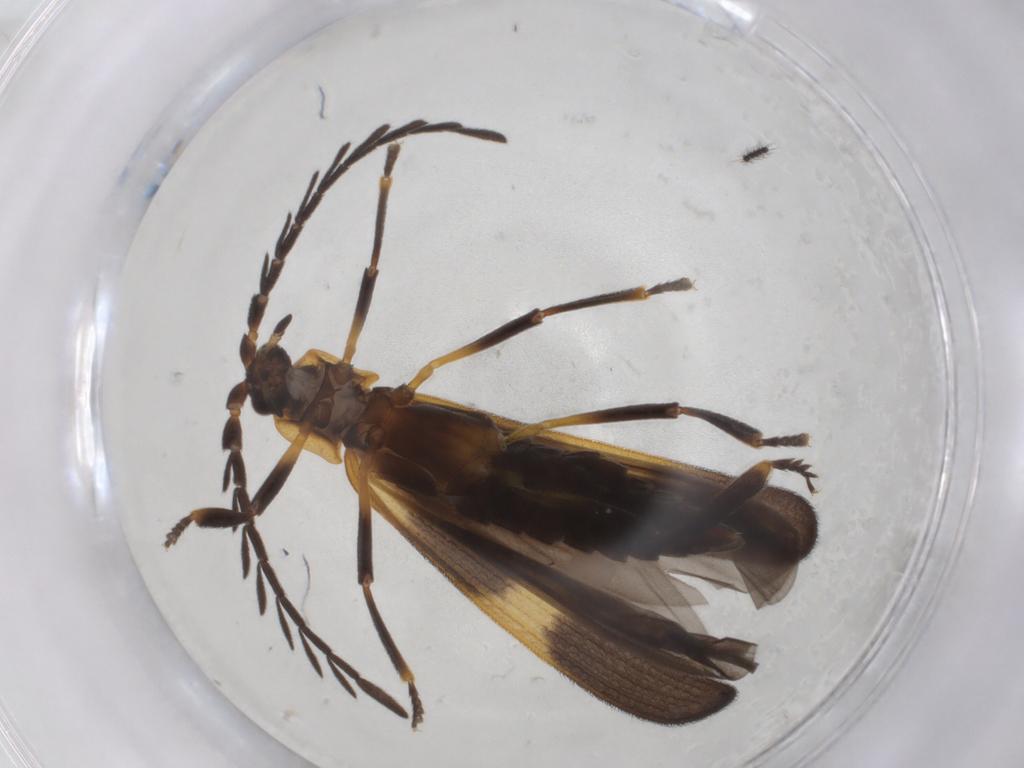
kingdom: Animalia
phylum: Arthropoda
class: Insecta
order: Coleoptera
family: Lycidae
